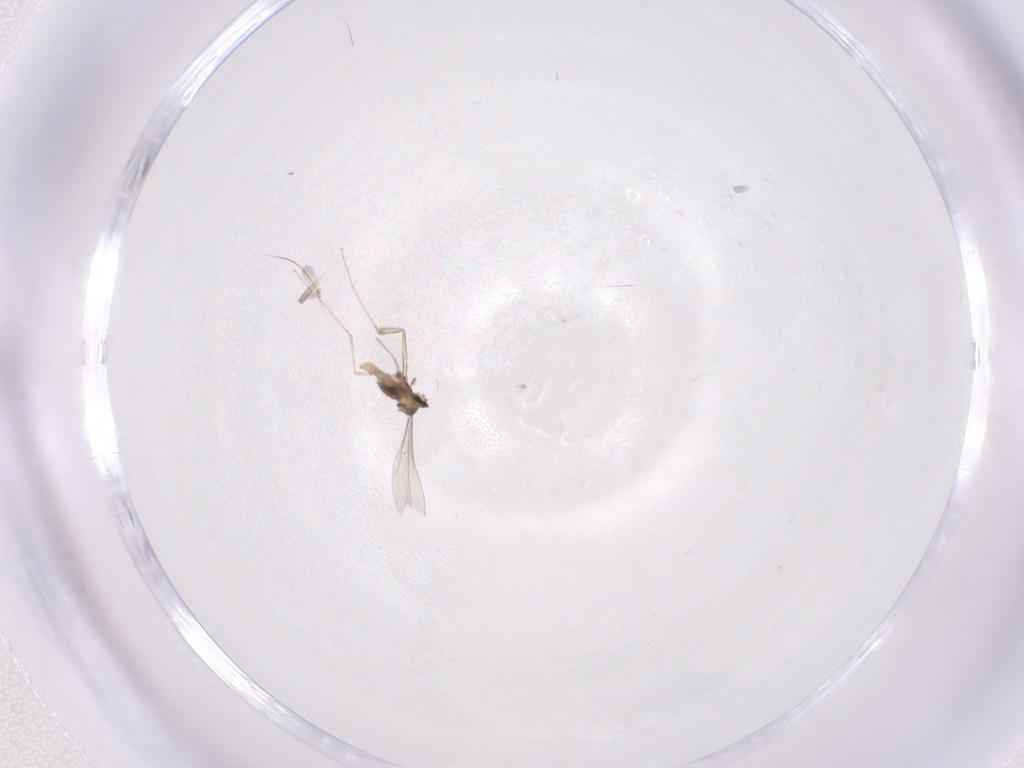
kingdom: Animalia
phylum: Arthropoda
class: Insecta
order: Diptera
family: Cecidomyiidae
